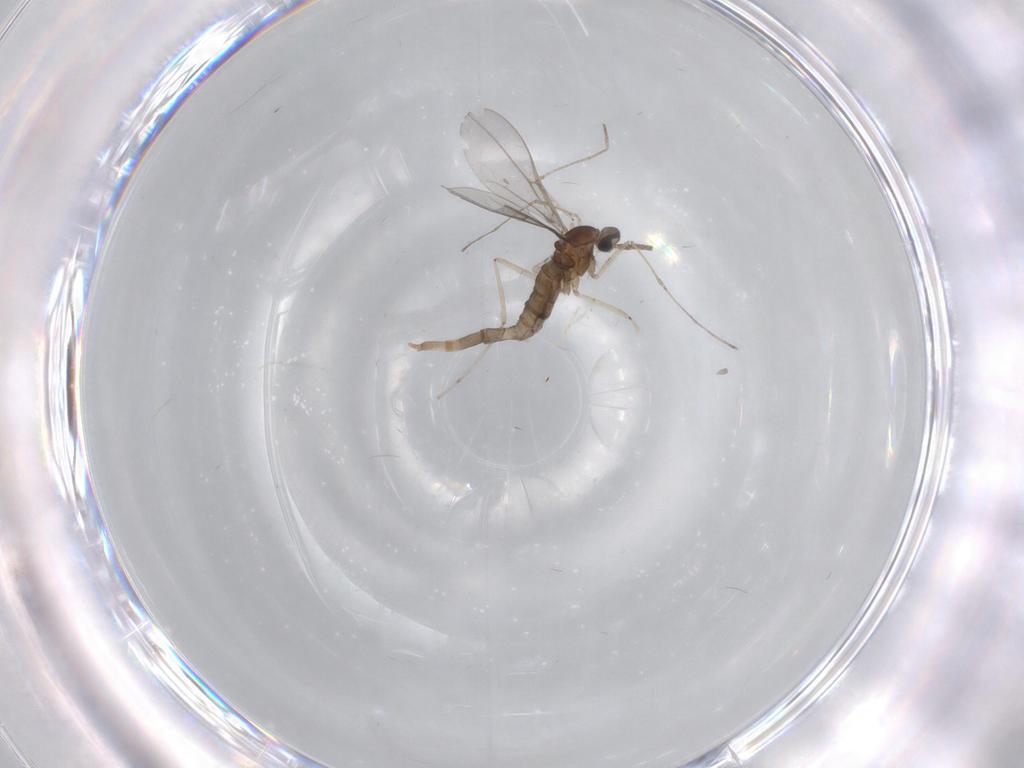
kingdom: Animalia
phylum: Arthropoda
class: Insecta
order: Diptera
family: Cecidomyiidae
